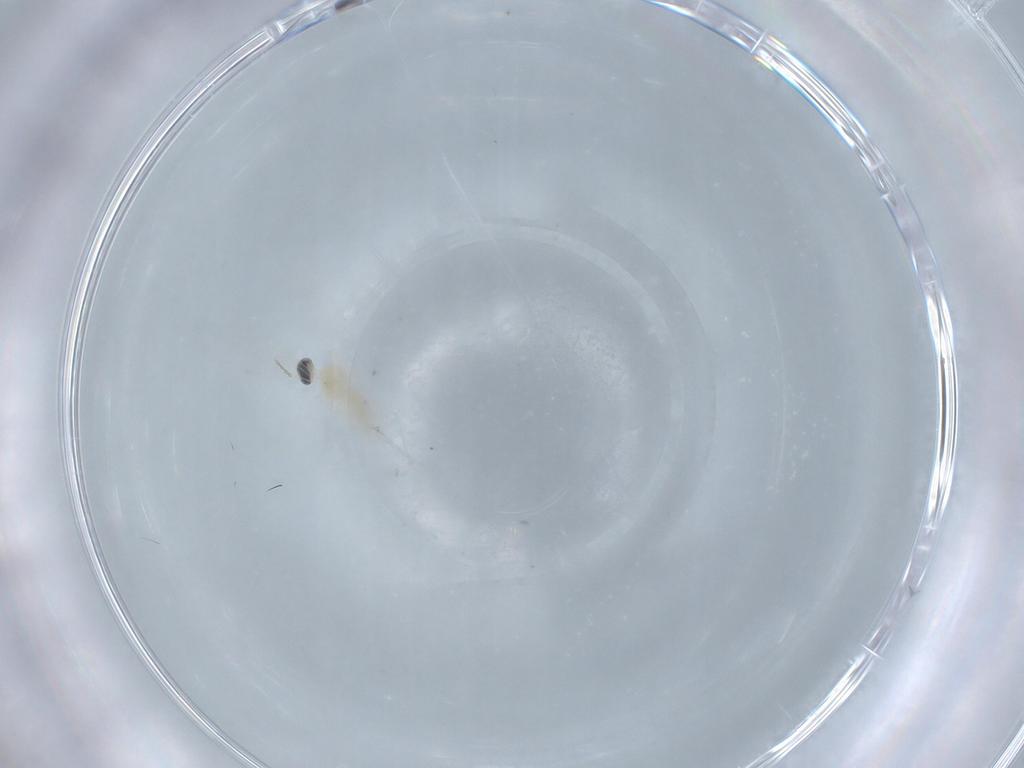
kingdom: Animalia
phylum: Arthropoda
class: Insecta
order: Diptera
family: Cecidomyiidae
